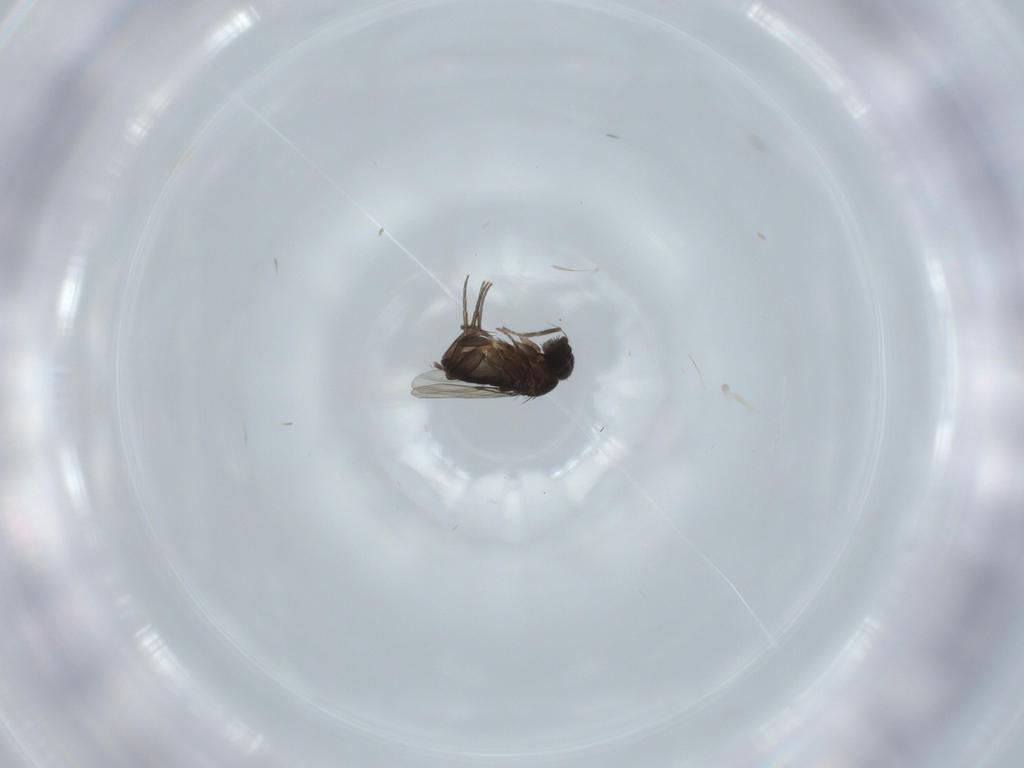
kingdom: Animalia
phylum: Arthropoda
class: Insecta
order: Diptera
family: Phoridae
